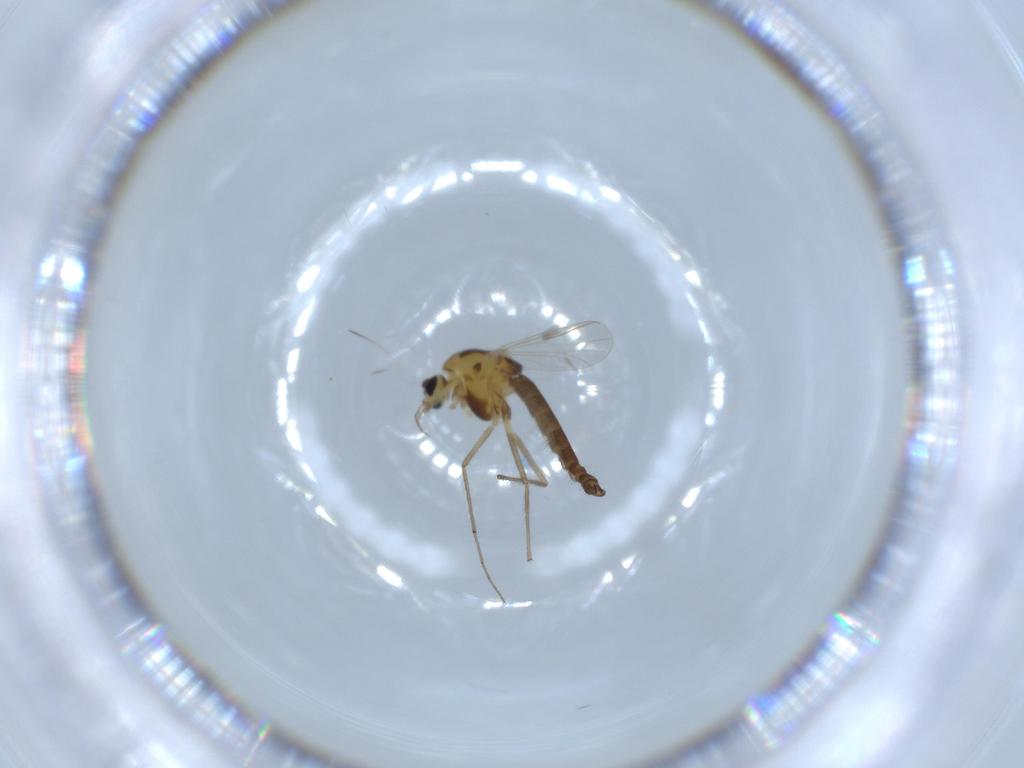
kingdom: Animalia
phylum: Arthropoda
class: Insecta
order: Diptera
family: Chironomidae
